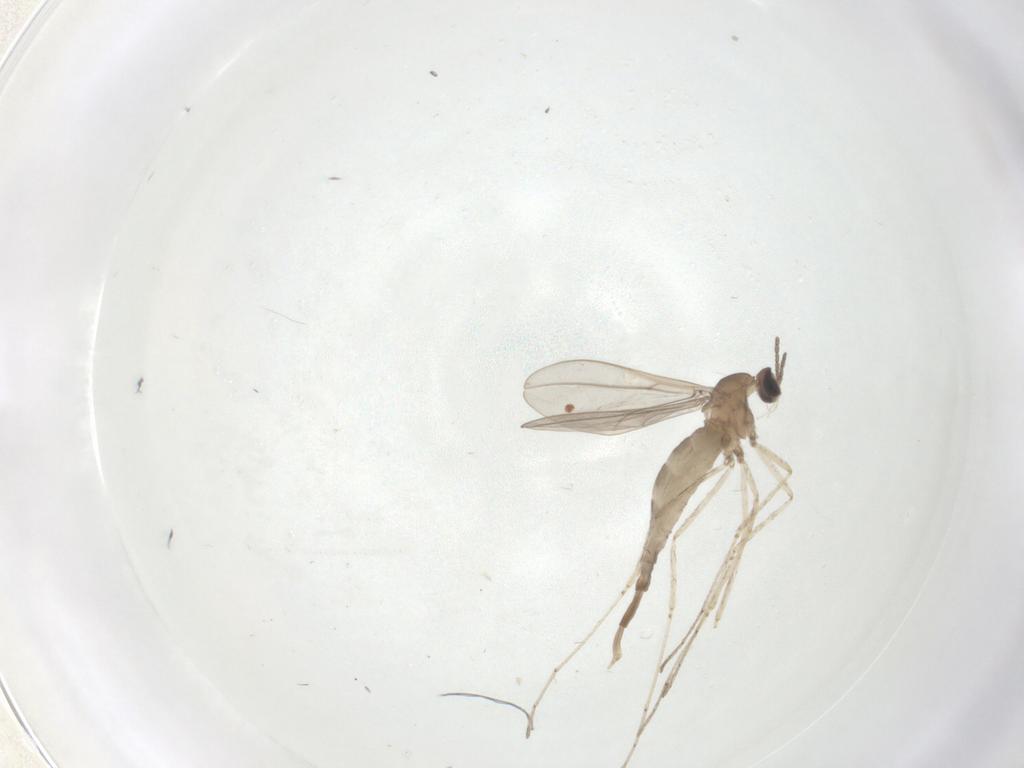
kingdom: Animalia
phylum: Arthropoda
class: Insecta
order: Diptera
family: Cecidomyiidae
